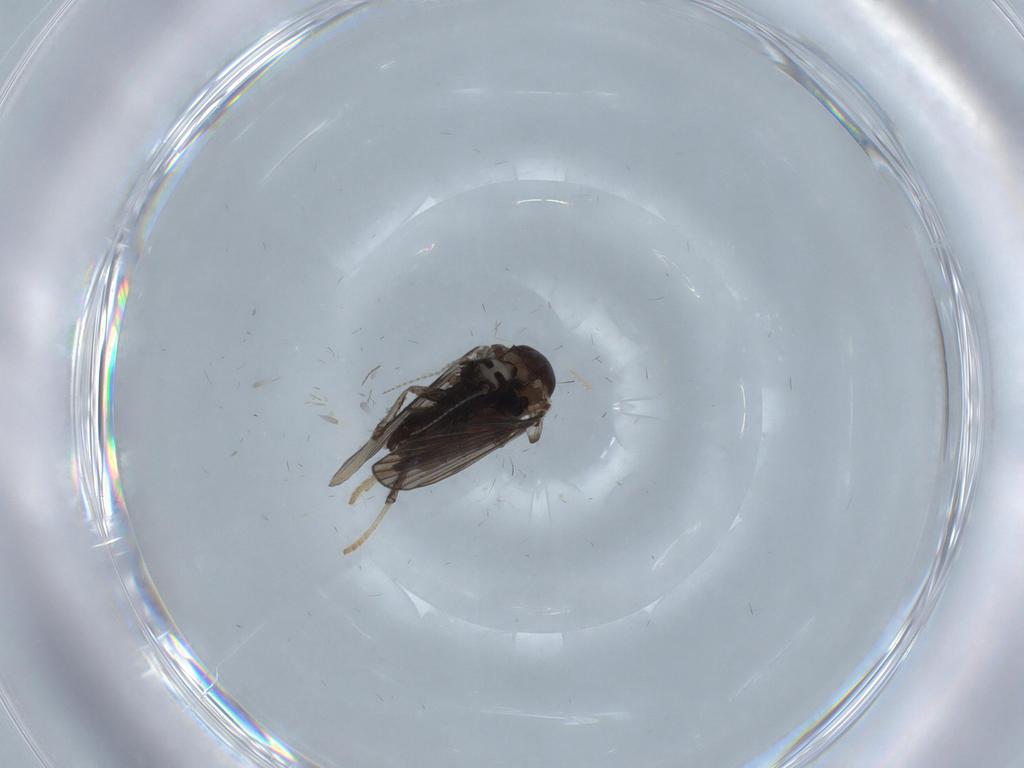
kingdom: Animalia
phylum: Arthropoda
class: Insecta
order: Diptera
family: Psychodidae
